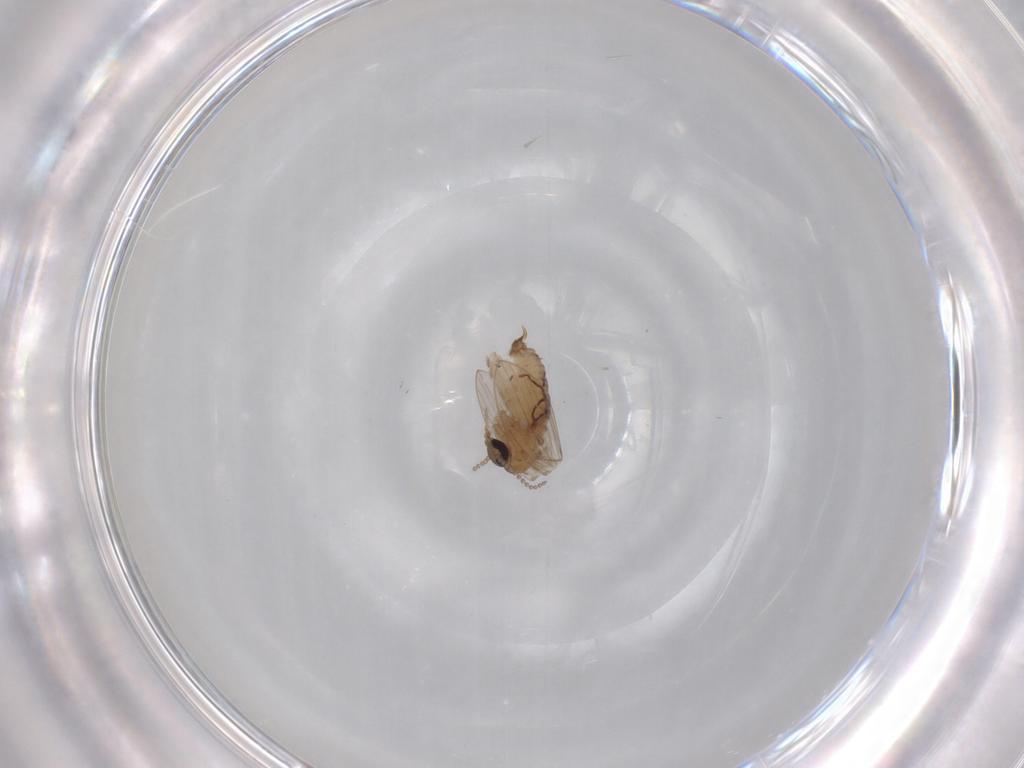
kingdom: Animalia
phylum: Arthropoda
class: Insecta
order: Diptera
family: Psychodidae
